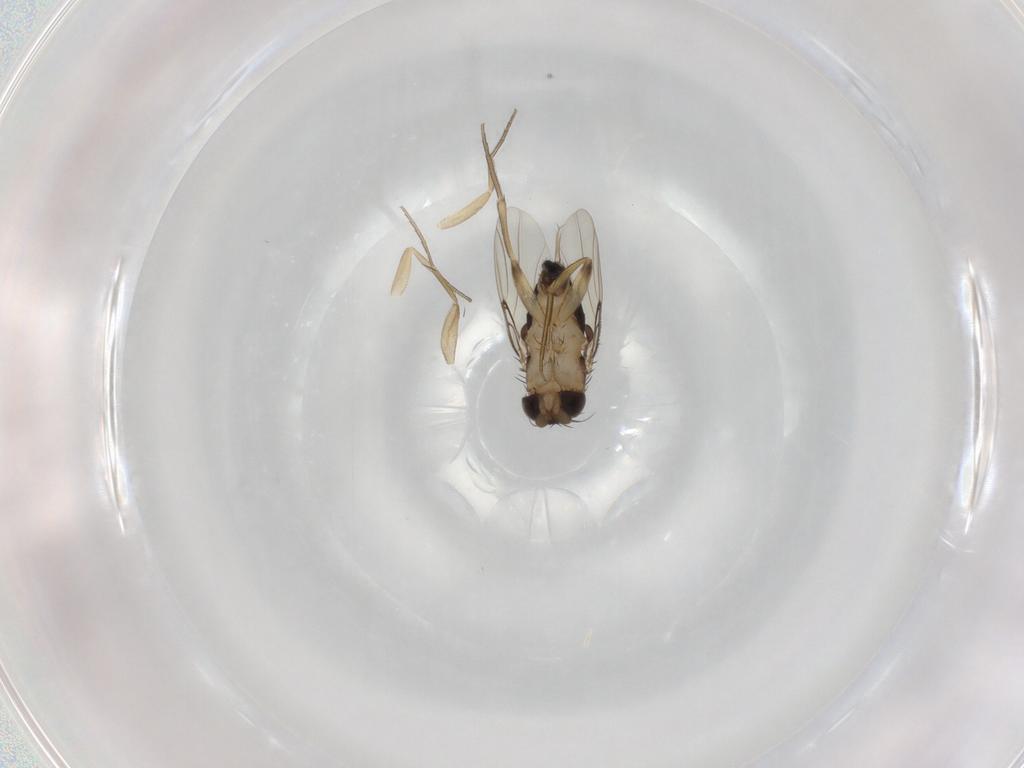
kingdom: Animalia
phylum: Arthropoda
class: Insecta
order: Diptera
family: Phoridae
